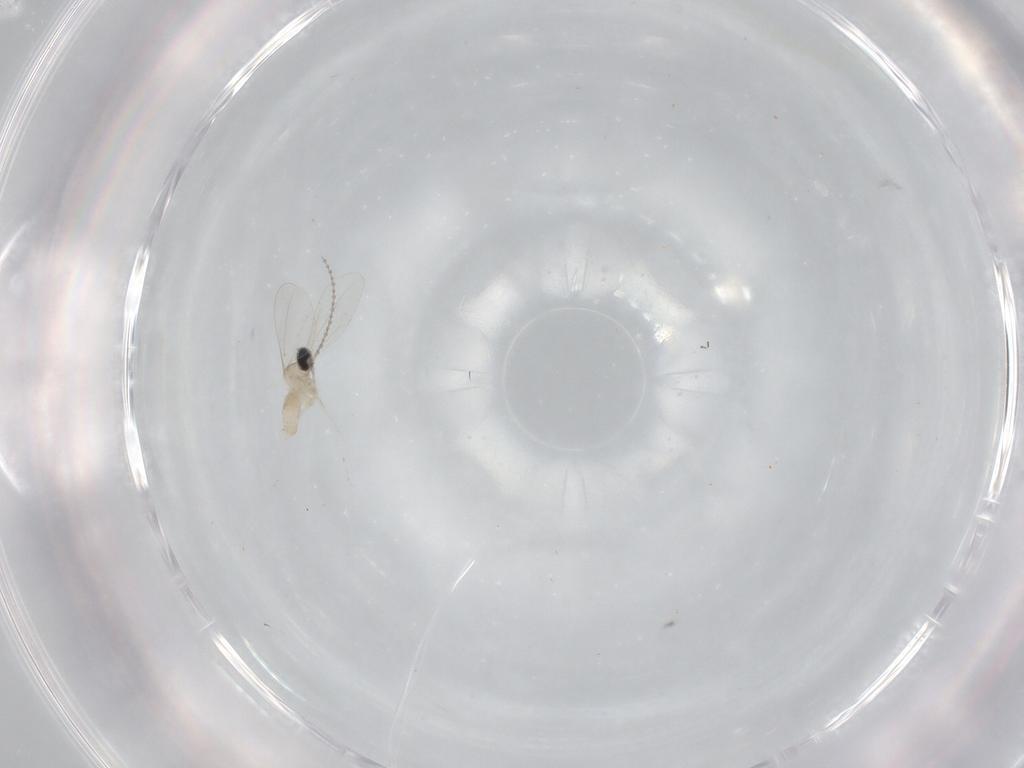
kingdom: Animalia
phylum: Arthropoda
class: Insecta
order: Diptera
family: Cecidomyiidae
